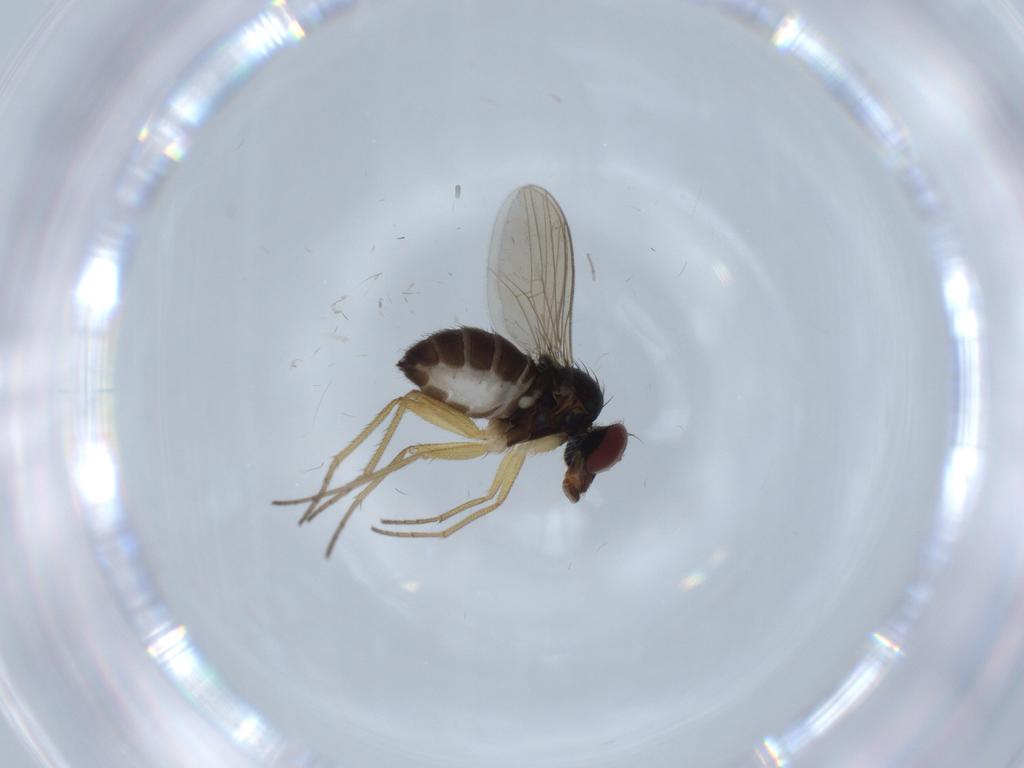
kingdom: Animalia
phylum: Arthropoda
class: Insecta
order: Diptera
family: Dolichopodidae
